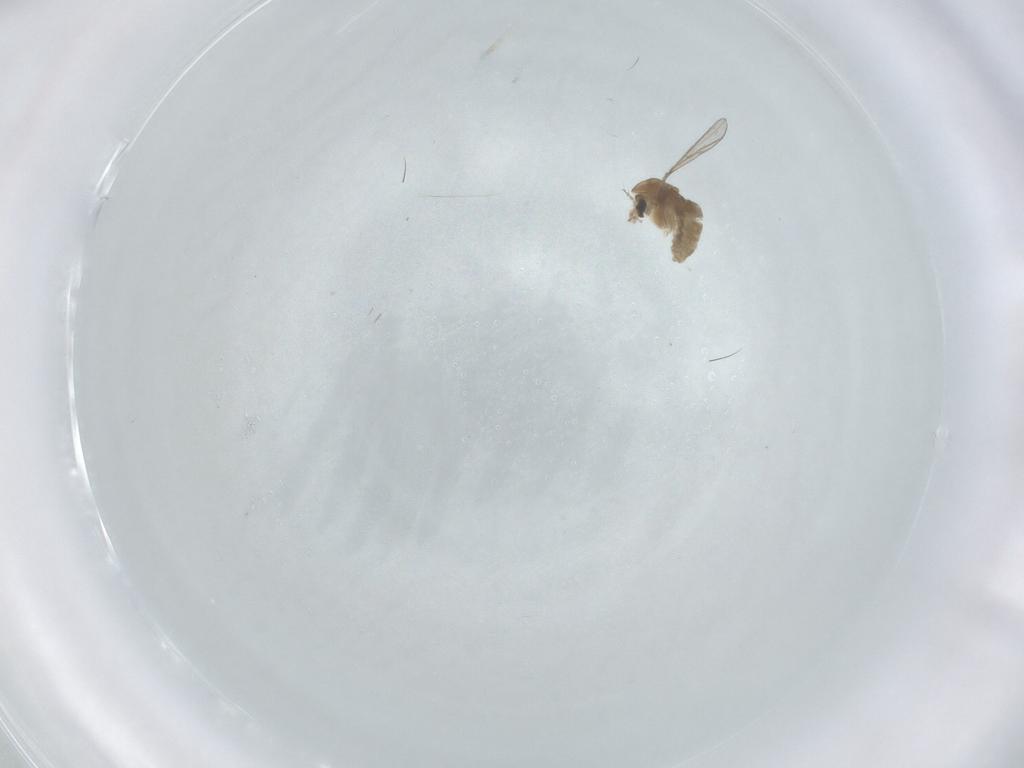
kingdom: Animalia
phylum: Arthropoda
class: Insecta
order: Diptera
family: Chironomidae
